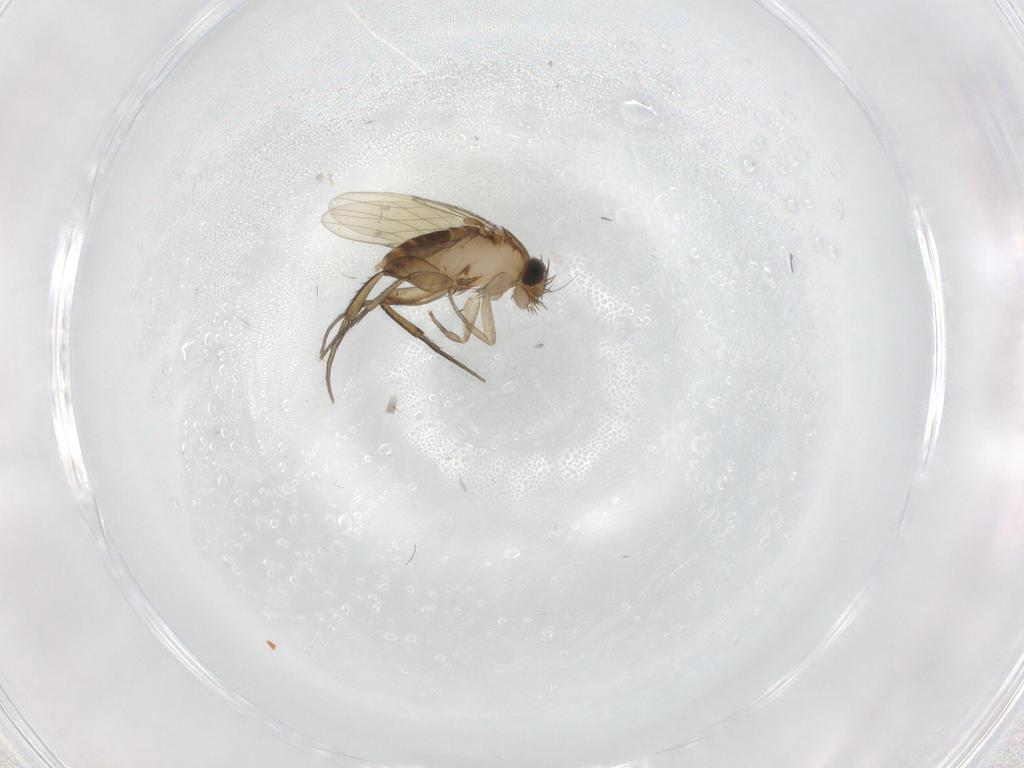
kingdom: Animalia
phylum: Arthropoda
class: Insecta
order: Diptera
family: Phoridae
